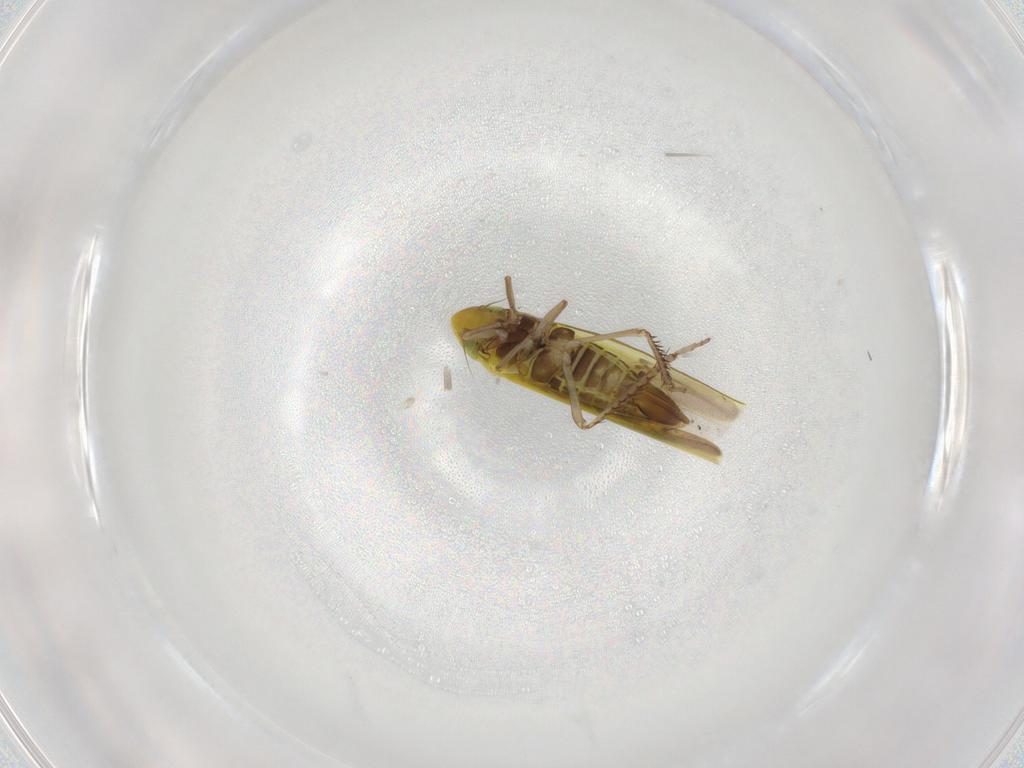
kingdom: Animalia
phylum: Arthropoda
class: Insecta
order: Hemiptera
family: Cicadellidae
